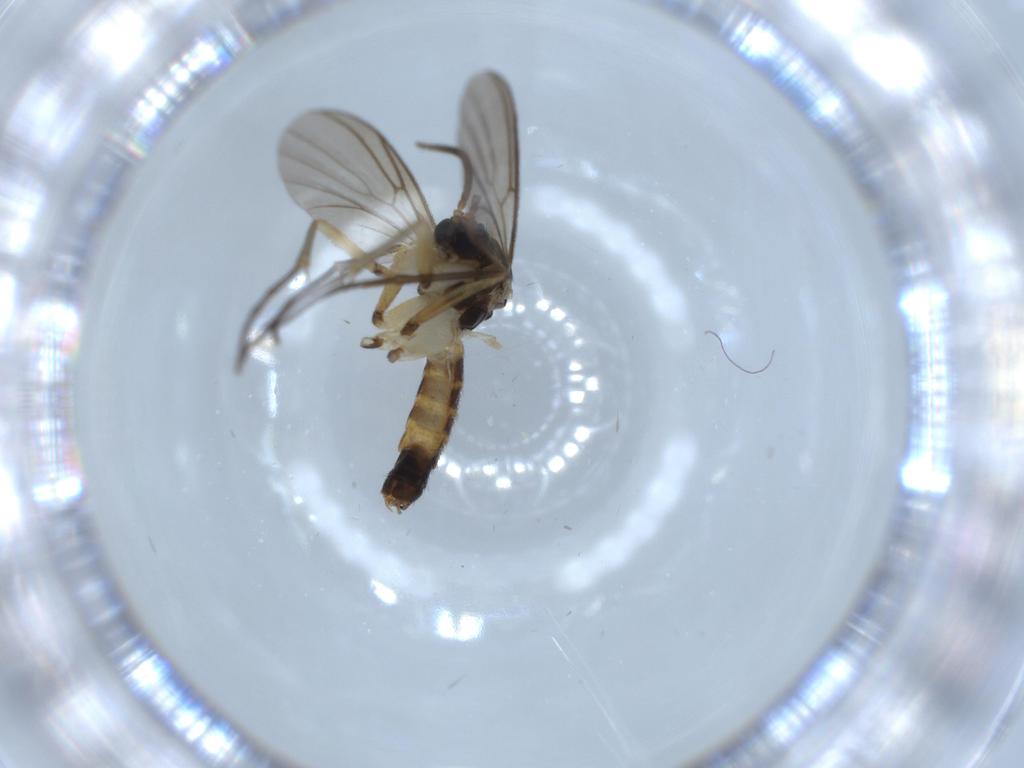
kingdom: Animalia
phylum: Arthropoda
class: Insecta
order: Diptera
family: Mycetophilidae
